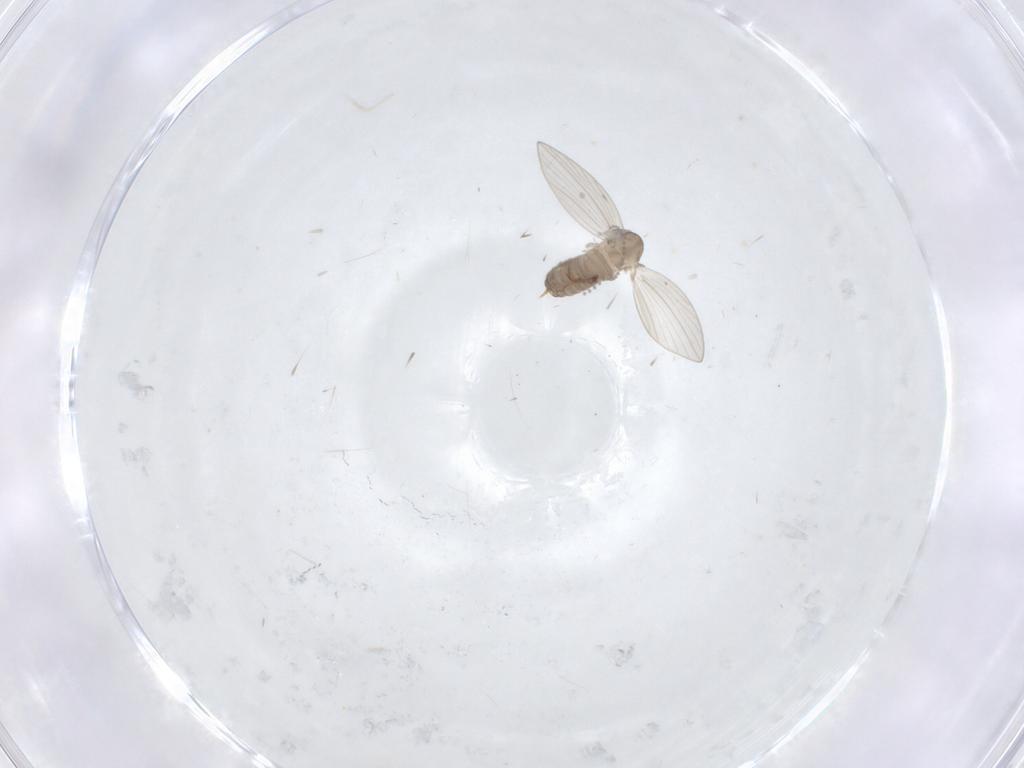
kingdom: Animalia
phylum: Arthropoda
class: Insecta
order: Diptera
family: Psychodidae
